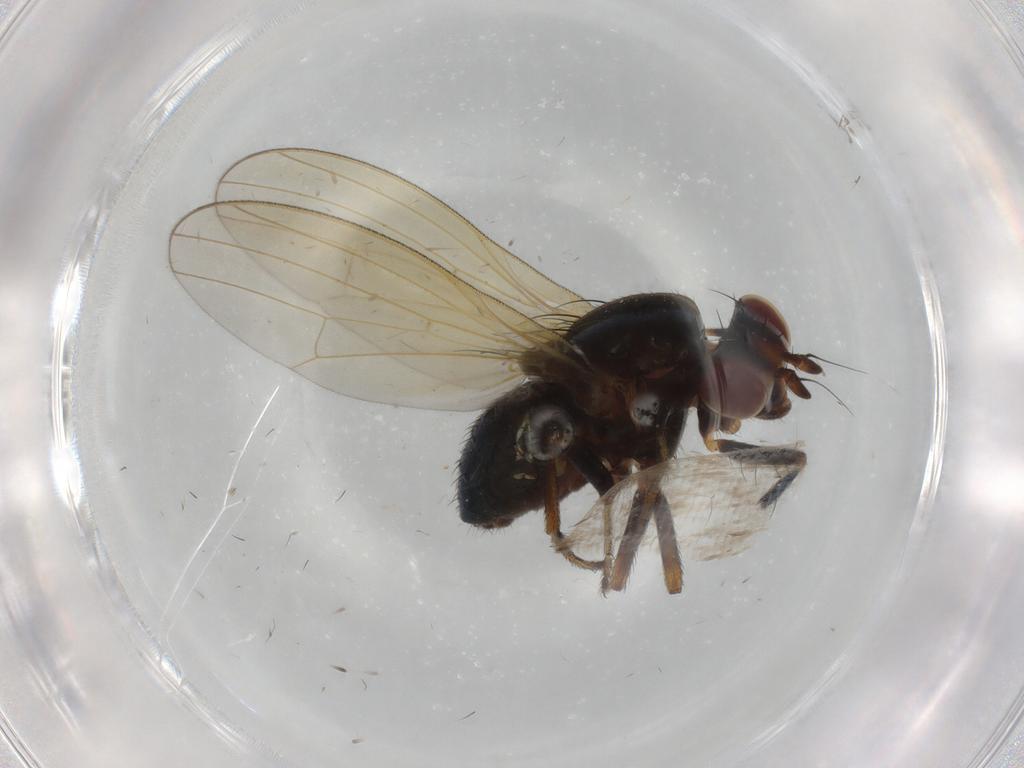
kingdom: Animalia
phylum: Arthropoda
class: Insecta
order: Diptera
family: Lauxaniidae
